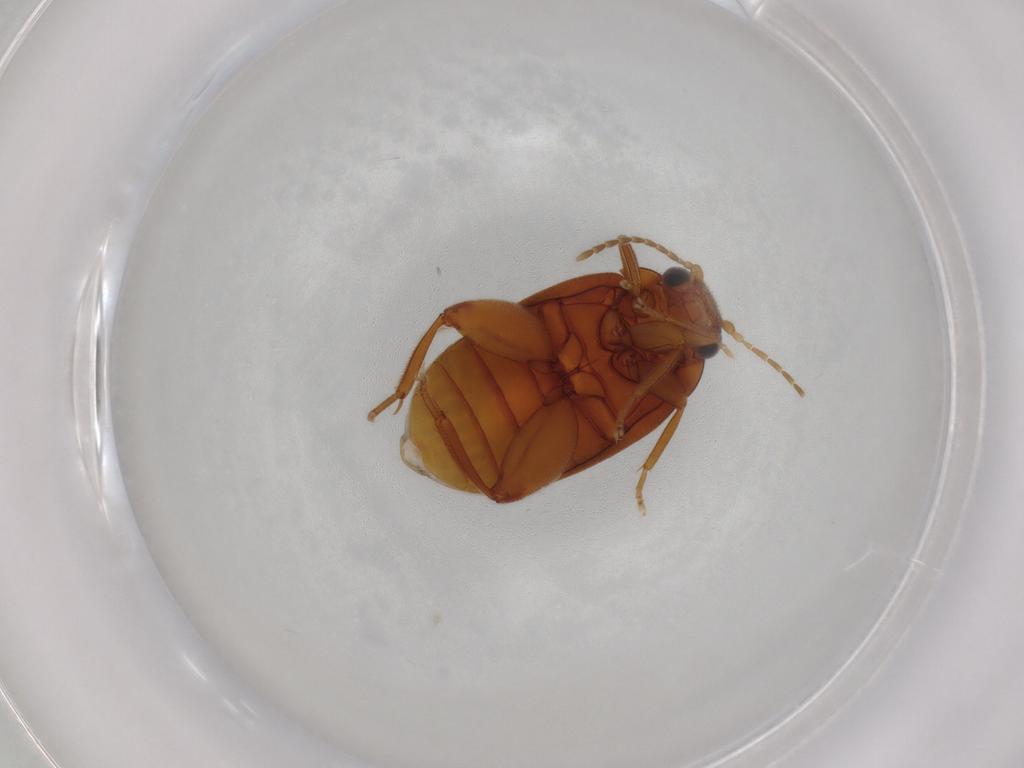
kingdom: Animalia
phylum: Arthropoda
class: Insecta
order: Coleoptera
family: Scirtidae
